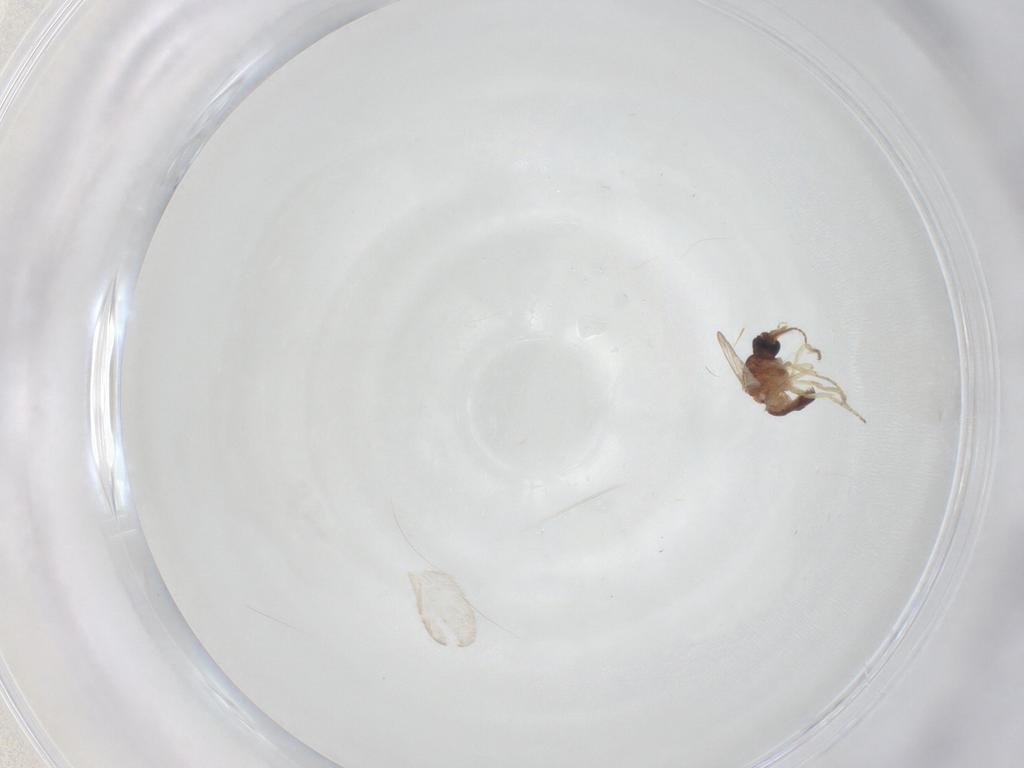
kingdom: Animalia
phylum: Arthropoda
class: Insecta
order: Diptera
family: Ceratopogonidae
